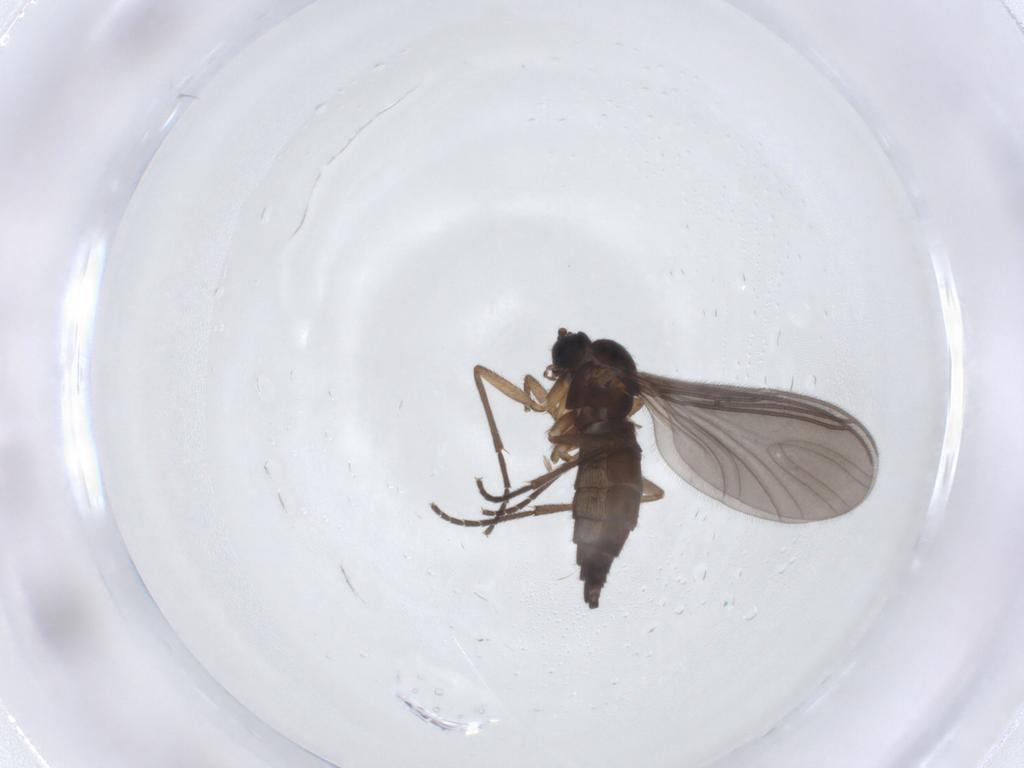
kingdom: Animalia
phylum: Arthropoda
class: Insecta
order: Diptera
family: Sciaridae
